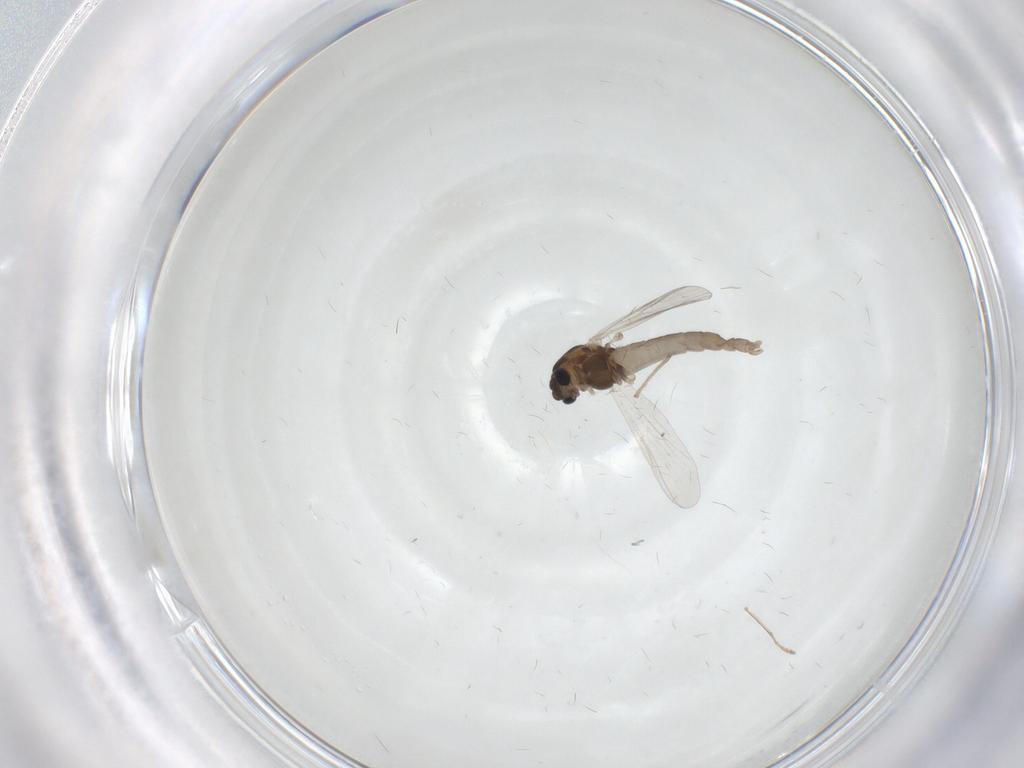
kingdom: Animalia
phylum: Arthropoda
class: Insecta
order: Diptera
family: Chironomidae
